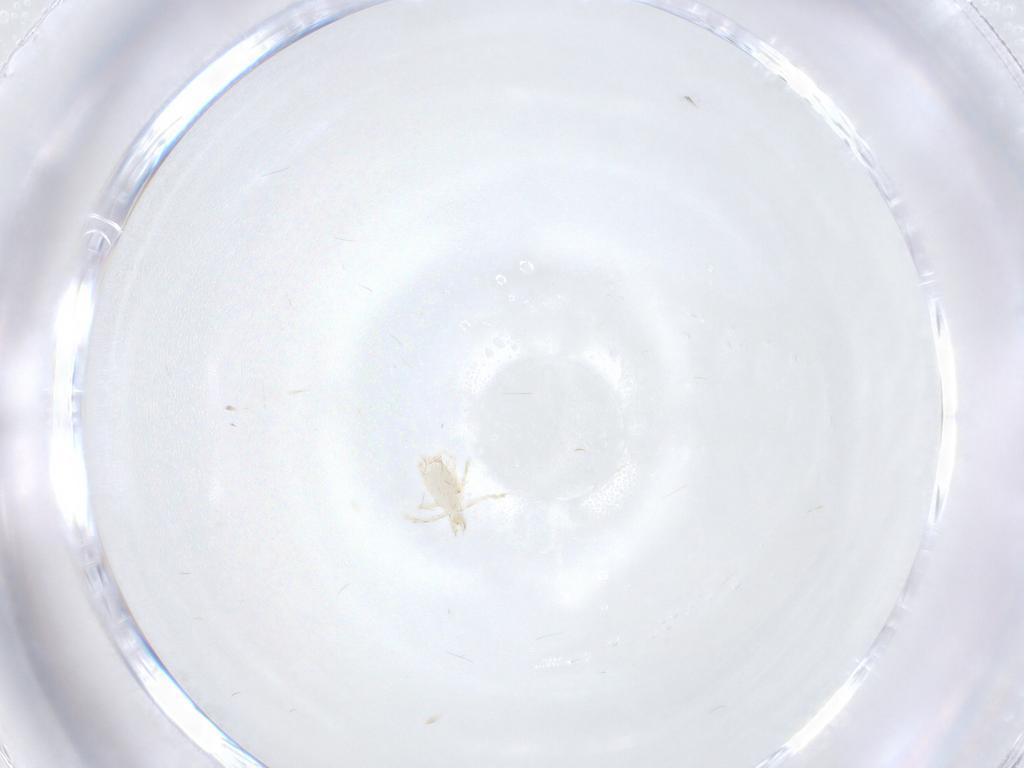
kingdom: Animalia
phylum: Arthropoda
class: Arachnida
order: Trombidiformes
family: Erythraeidae
